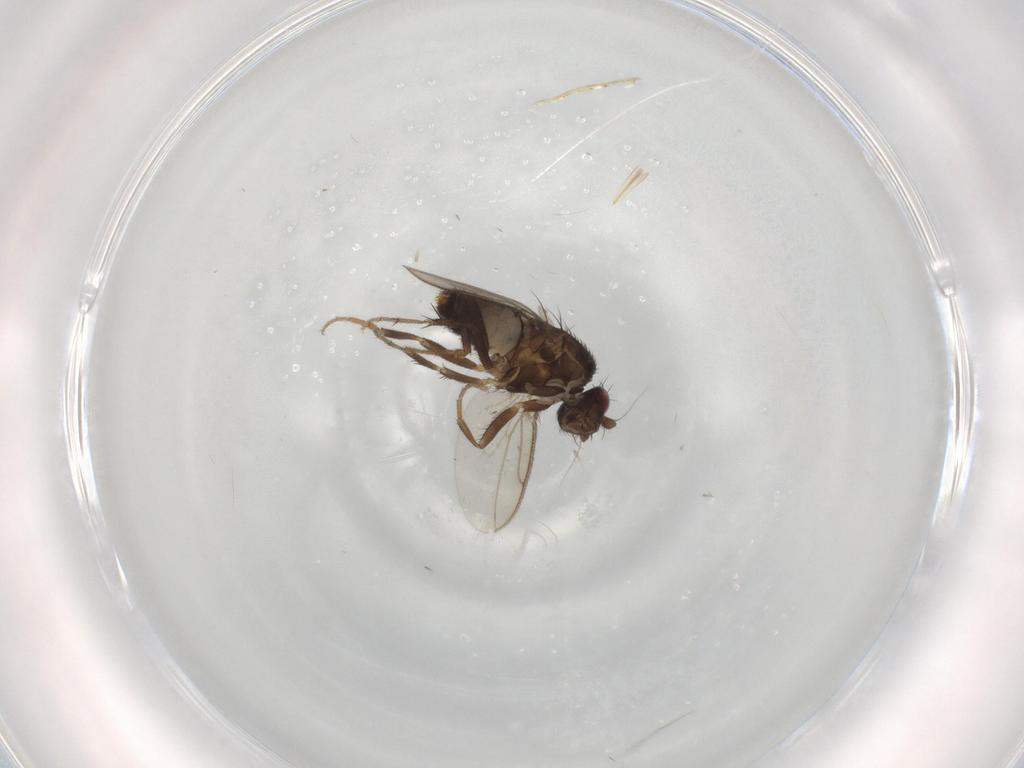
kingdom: Animalia
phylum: Arthropoda
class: Insecta
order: Diptera
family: Sphaeroceridae
